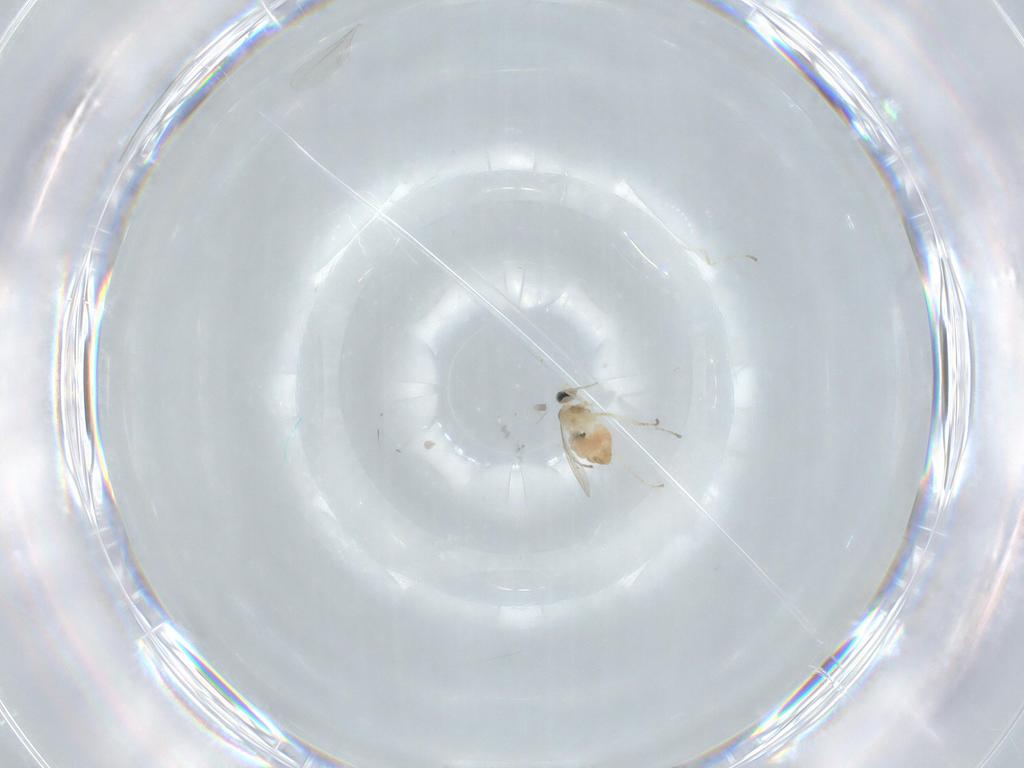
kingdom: Animalia
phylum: Arthropoda
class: Insecta
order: Diptera
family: Cecidomyiidae
